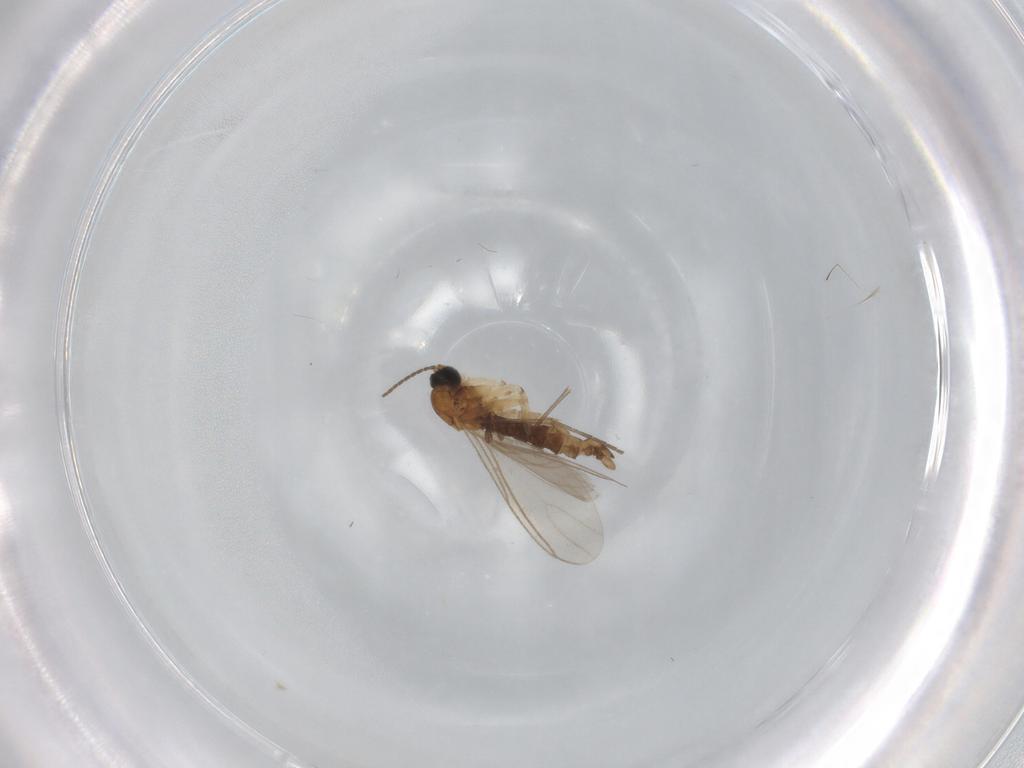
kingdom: Animalia
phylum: Arthropoda
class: Insecta
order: Diptera
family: Sciaridae
